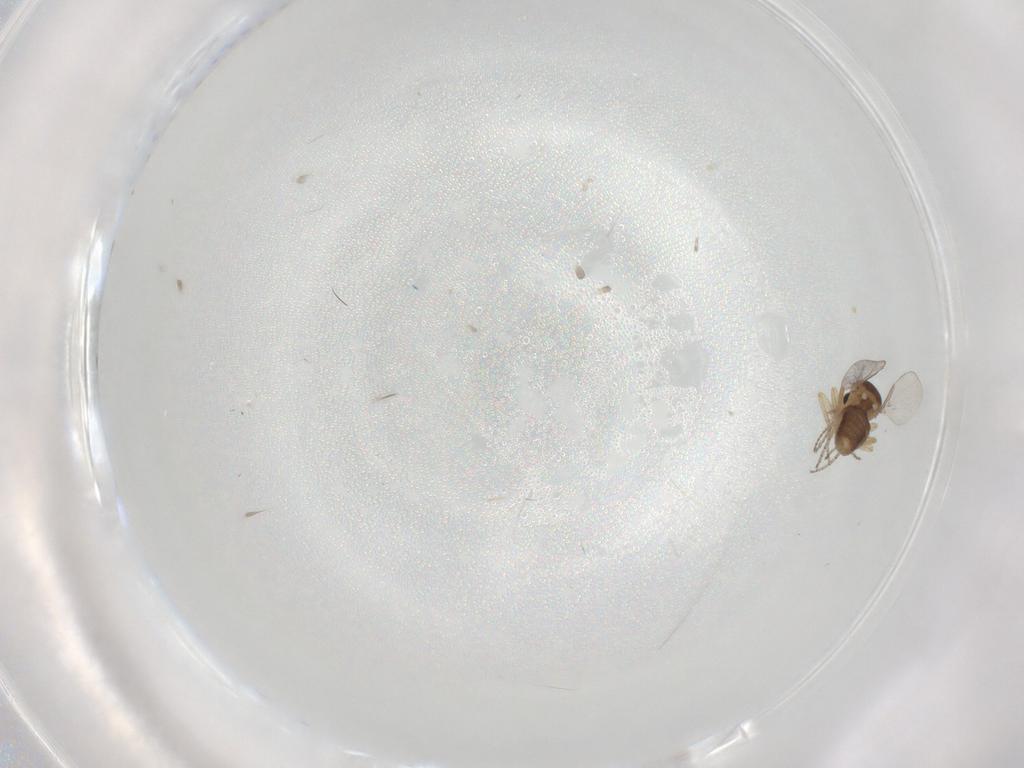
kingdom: Animalia
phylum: Arthropoda
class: Insecta
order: Diptera
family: Ceratopogonidae
